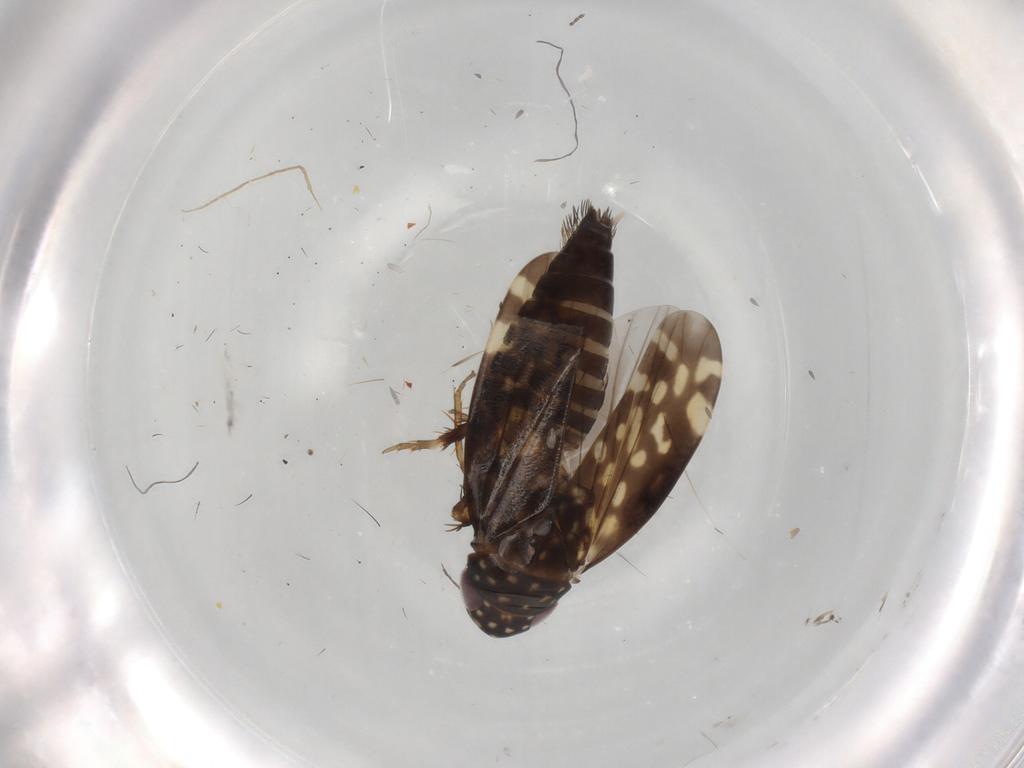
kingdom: Animalia
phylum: Arthropoda
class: Insecta
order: Hemiptera
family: Cicadellidae
